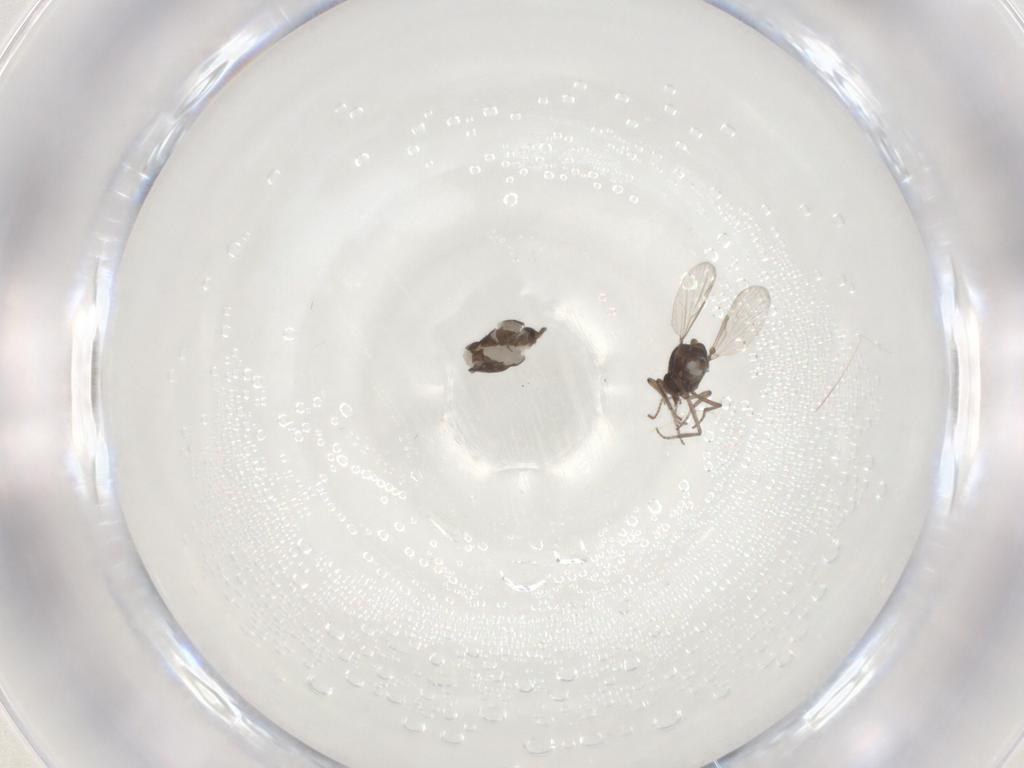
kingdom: Animalia
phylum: Arthropoda
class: Insecta
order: Diptera
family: Ceratopogonidae
